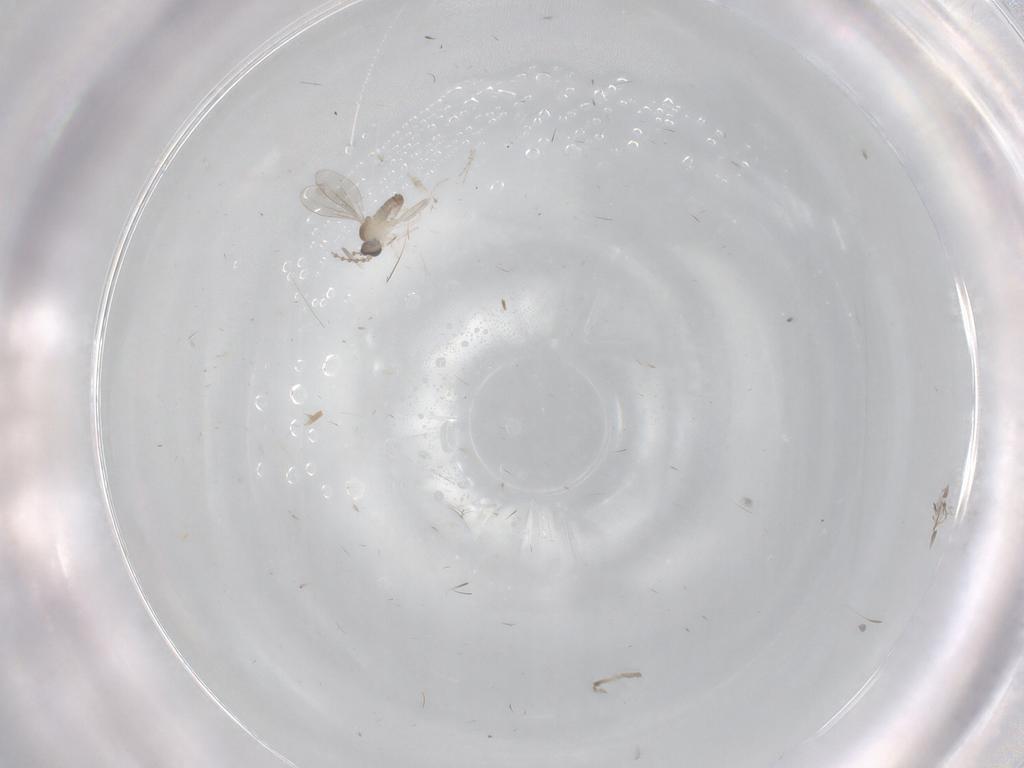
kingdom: Animalia
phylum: Arthropoda
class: Insecta
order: Diptera
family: Cecidomyiidae
